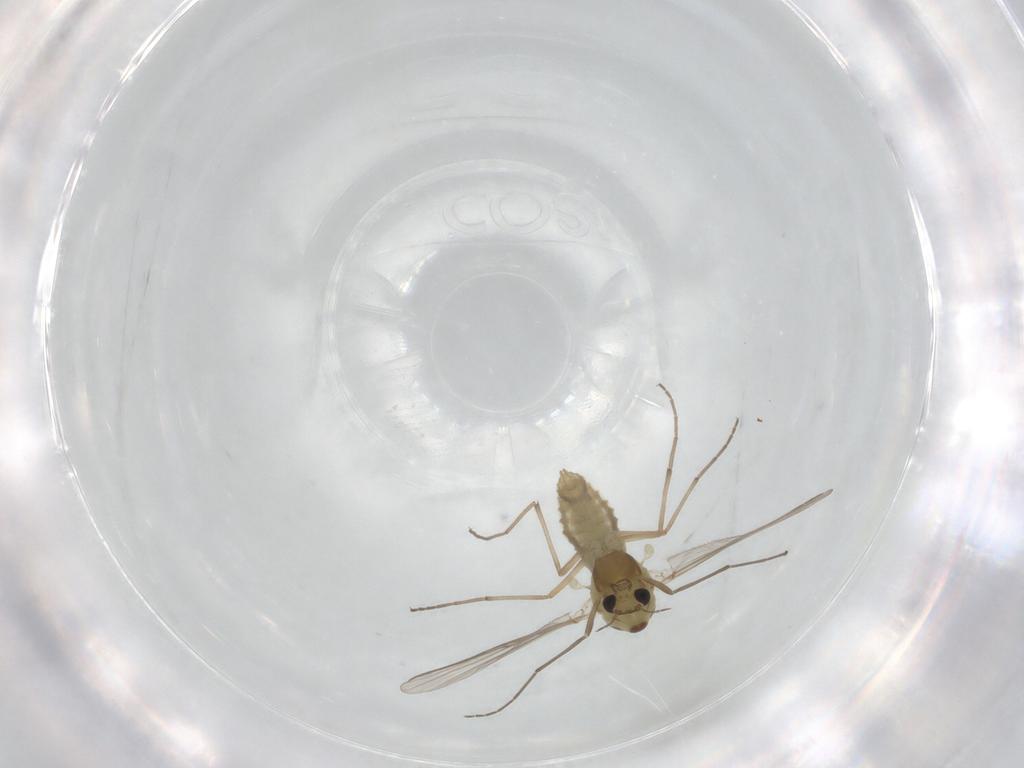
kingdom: Animalia
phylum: Arthropoda
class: Insecta
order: Diptera
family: Chironomidae
